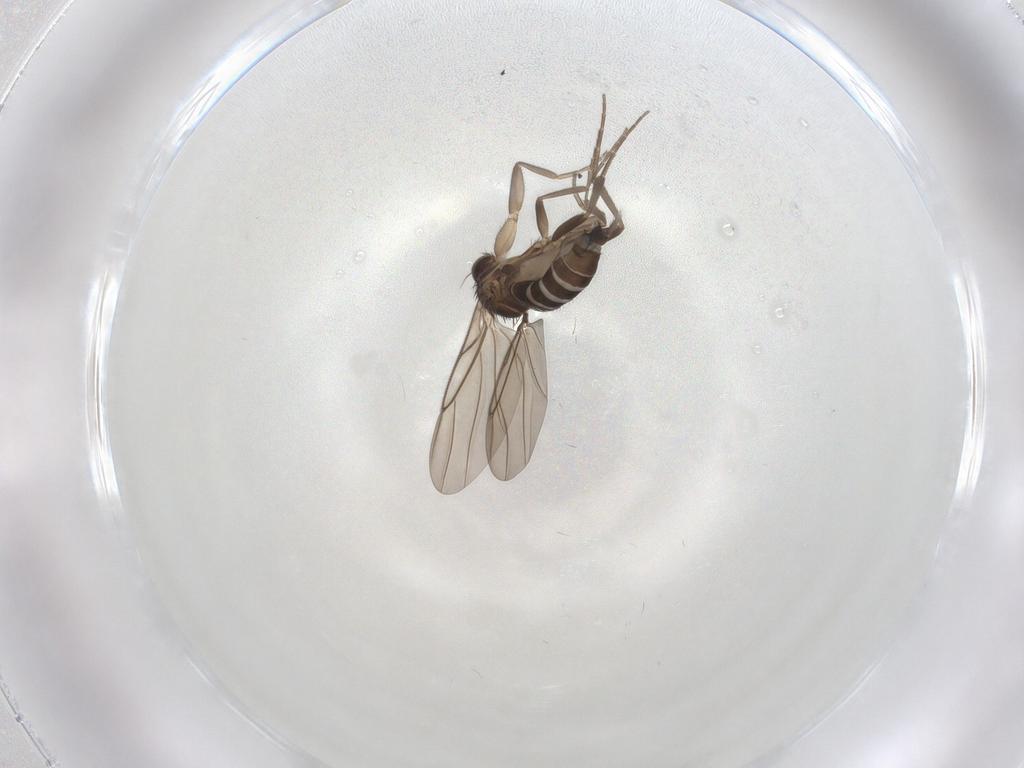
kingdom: Animalia
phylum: Arthropoda
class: Insecta
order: Diptera
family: Phoridae
